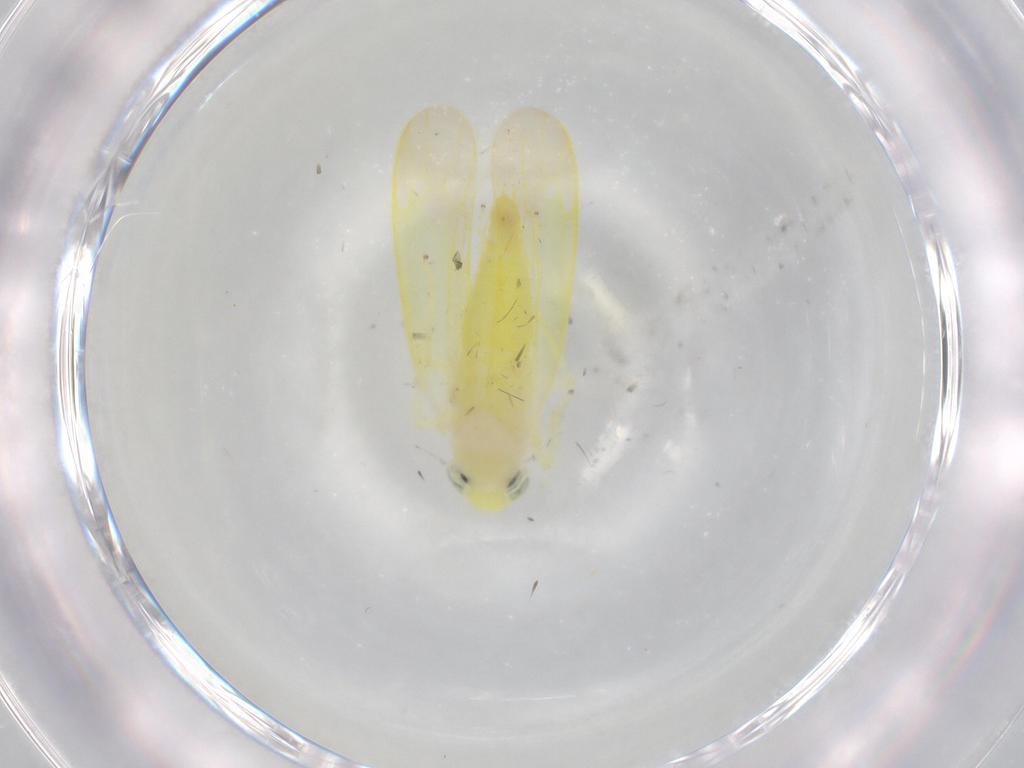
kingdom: Animalia
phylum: Arthropoda
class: Insecta
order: Hemiptera
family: Cicadellidae
